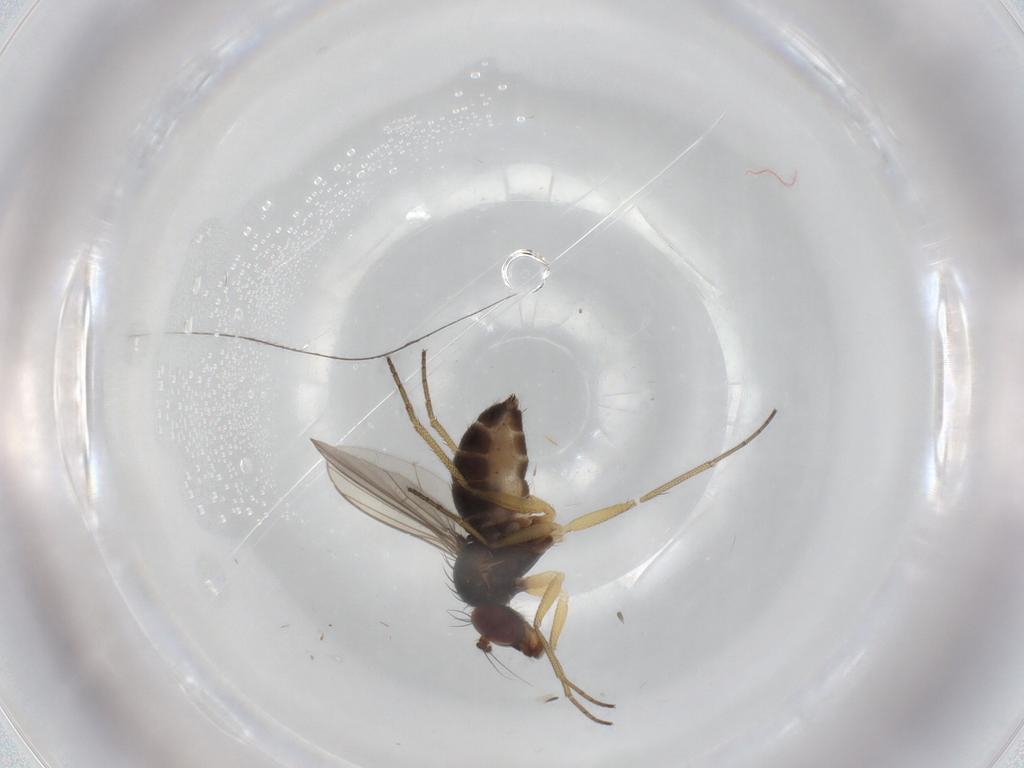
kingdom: Animalia
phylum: Arthropoda
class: Insecta
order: Diptera
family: Dolichopodidae
